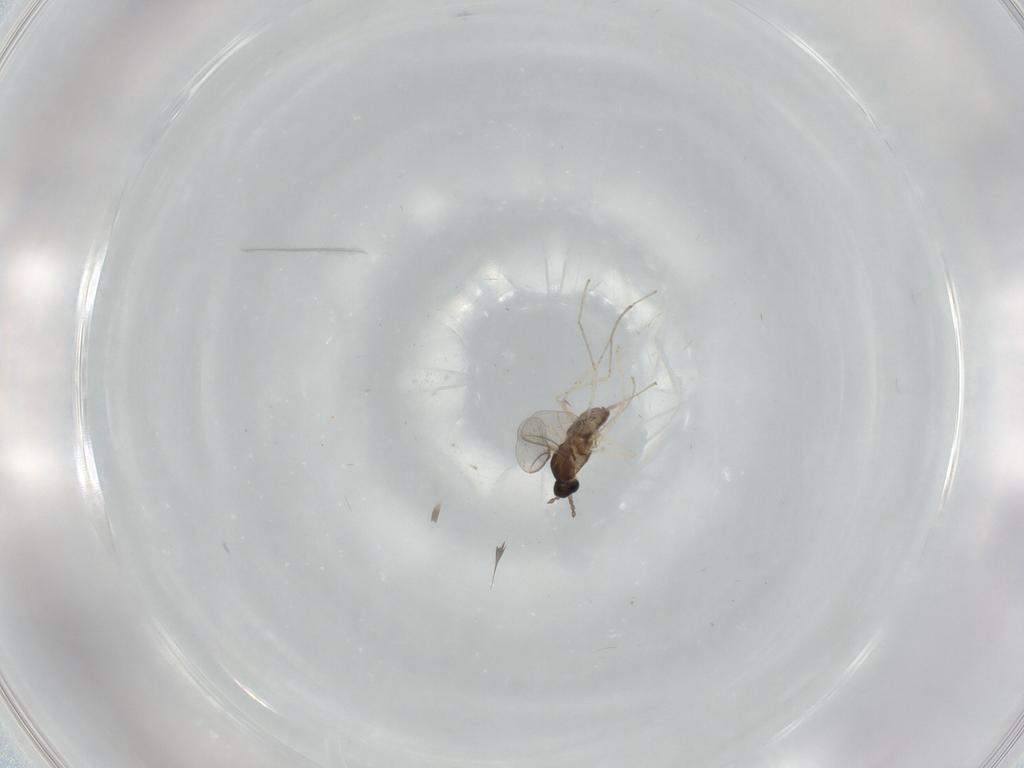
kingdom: Animalia
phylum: Arthropoda
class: Insecta
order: Diptera
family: Cecidomyiidae
